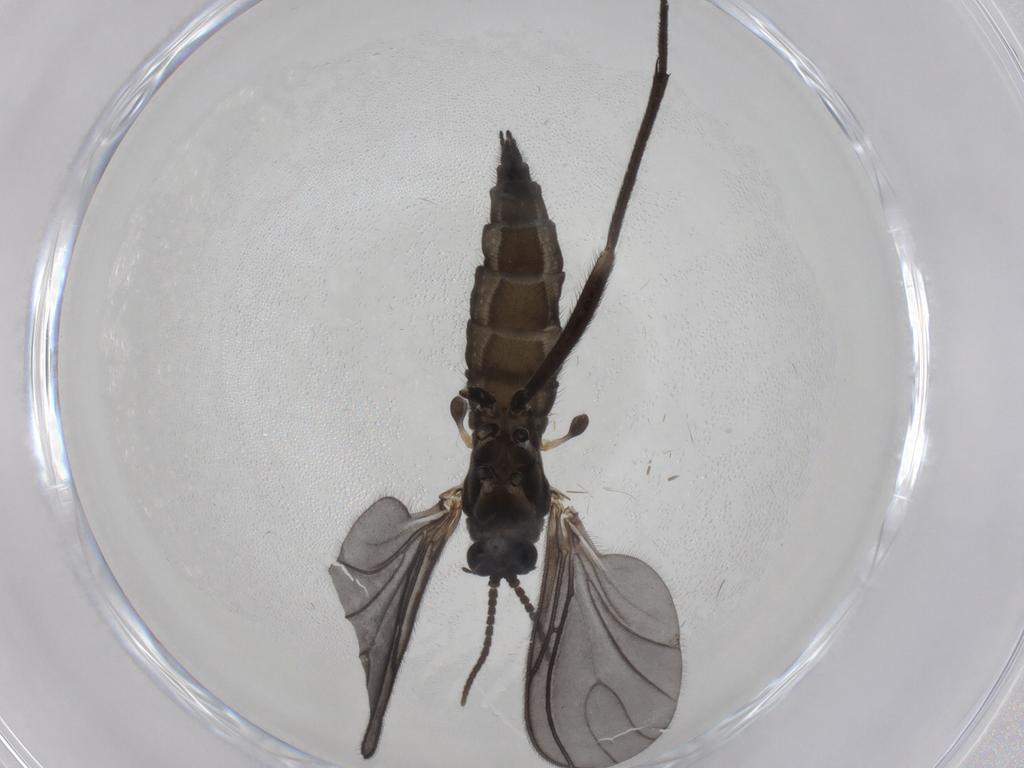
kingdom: Animalia
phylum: Arthropoda
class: Insecta
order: Diptera
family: Sciaridae
